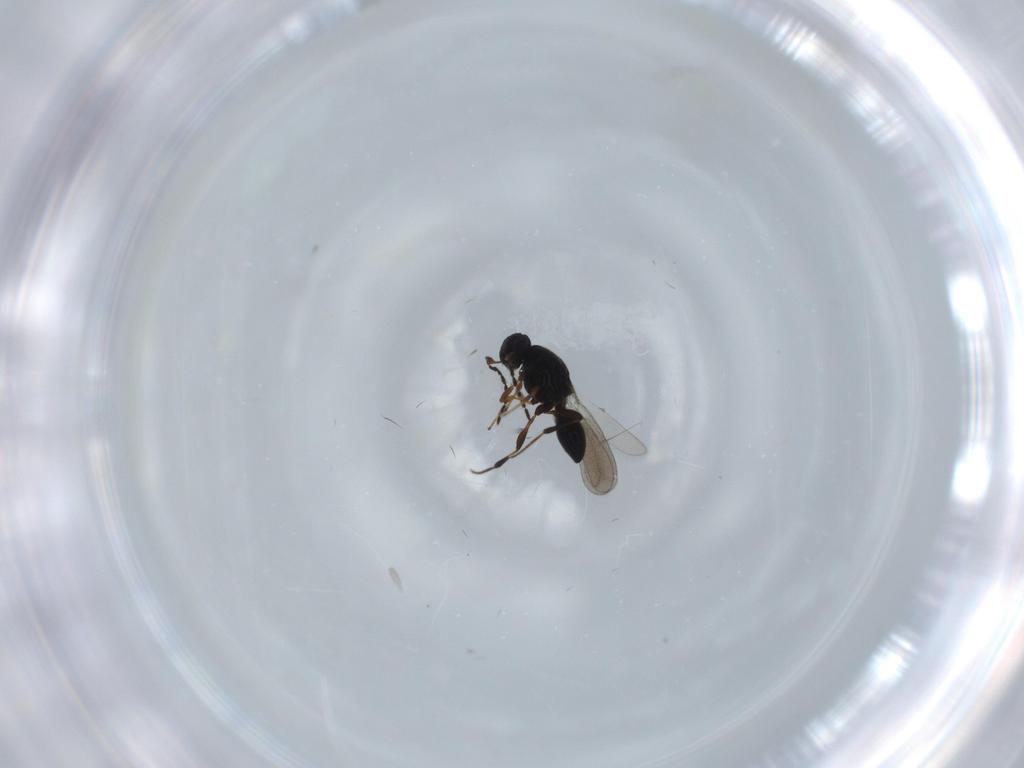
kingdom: Animalia
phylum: Arthropoda
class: Insecta
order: Hymenoptera
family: Platygastridae
